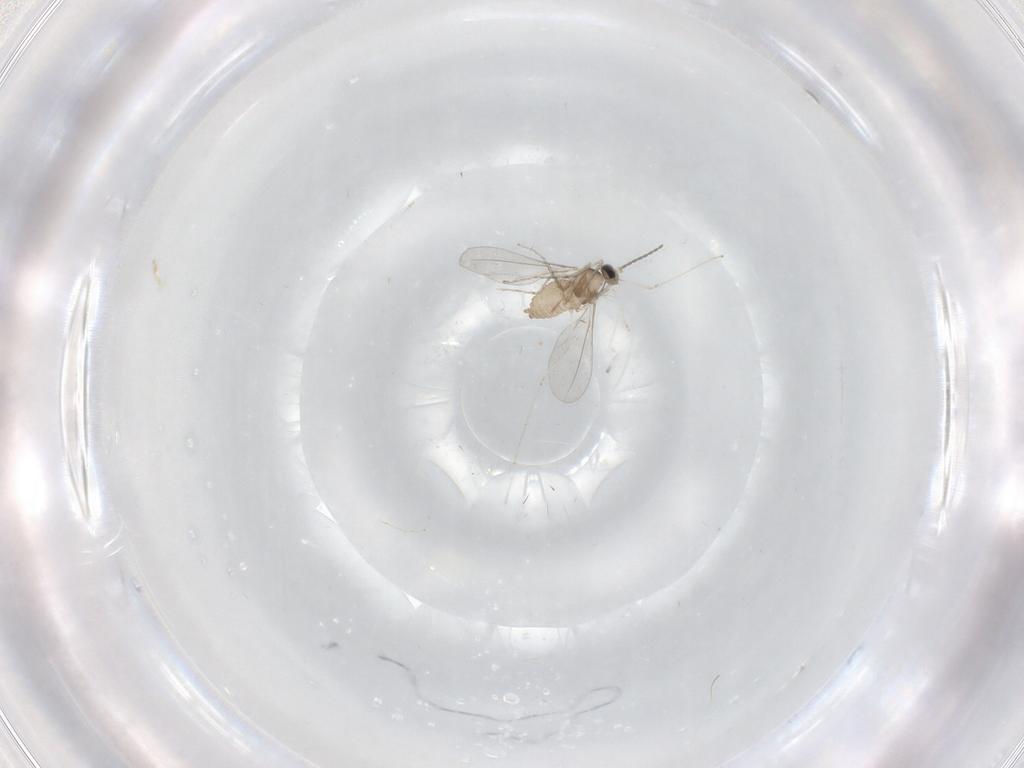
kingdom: Animalia
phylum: Arthropoda
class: Insecta
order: Diptera
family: Cecidomyiidae
